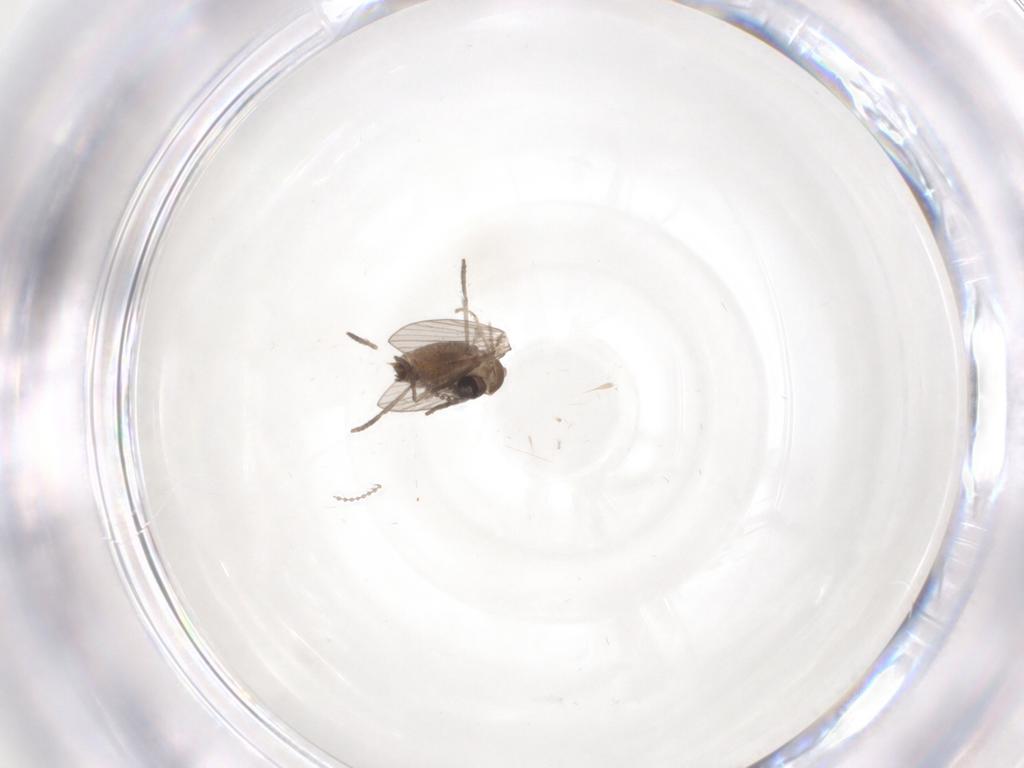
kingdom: Animalia
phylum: Arthropoda
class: Insecta
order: Diptera
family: Psychodidae
